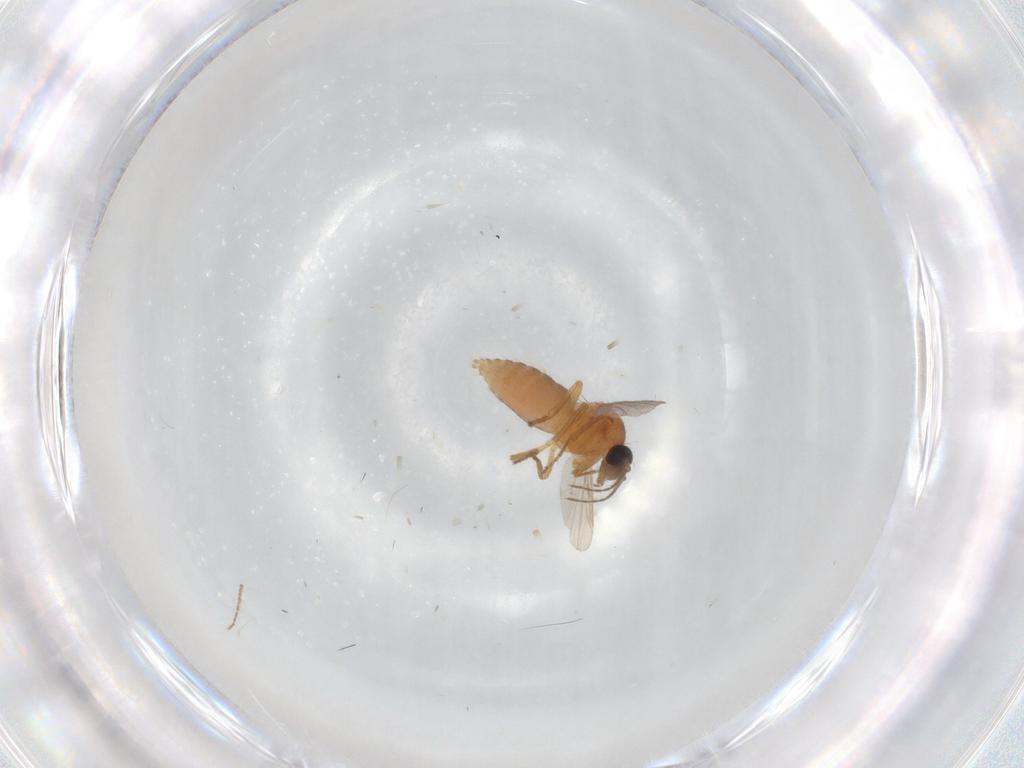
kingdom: Animalia
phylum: Arthropoda
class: Insecta
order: Diptera
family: Ceratopogonidae
